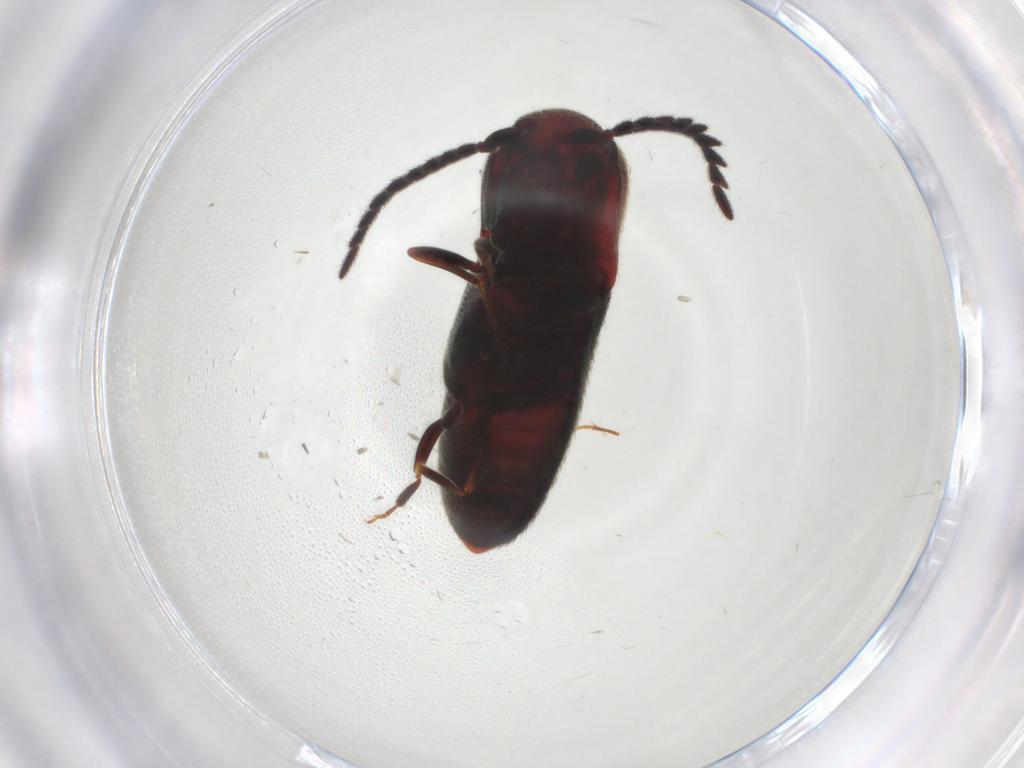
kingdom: Animalia
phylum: Arthropoda
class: Insecta
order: Coleoptera
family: Eucnemidae
